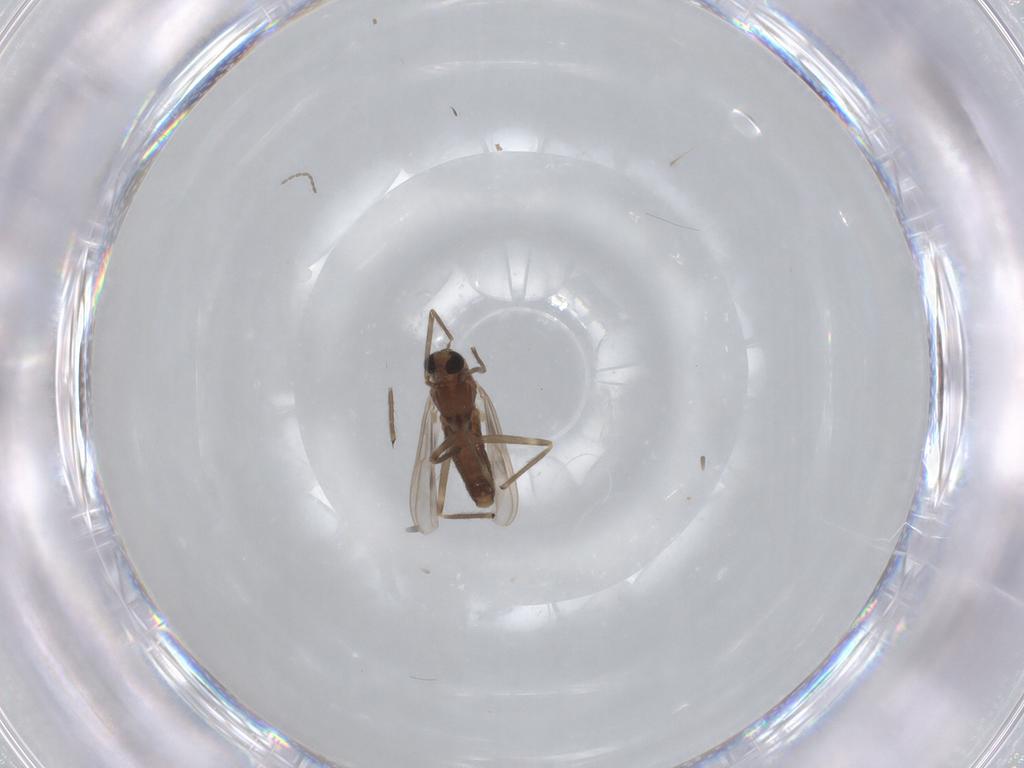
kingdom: Animalia
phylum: Arthropoda
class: Insecta
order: Diptera
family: Chironomidae
